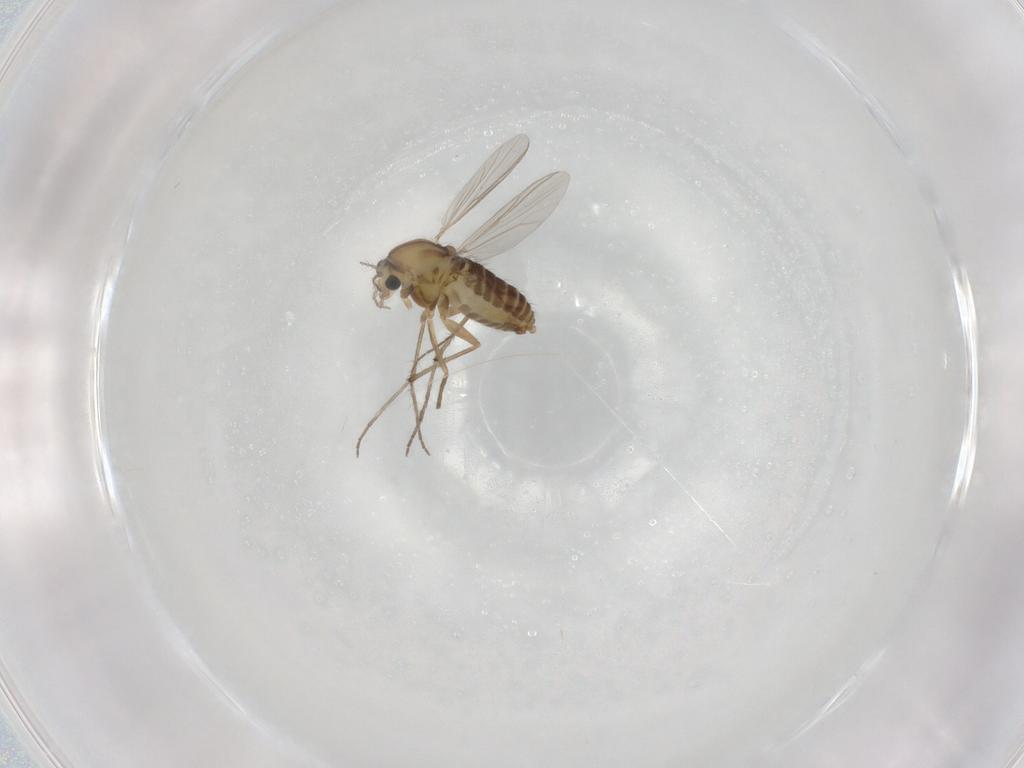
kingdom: Animalia
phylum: Arthropoda
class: Insecta
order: Diptera
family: Chironomidae
